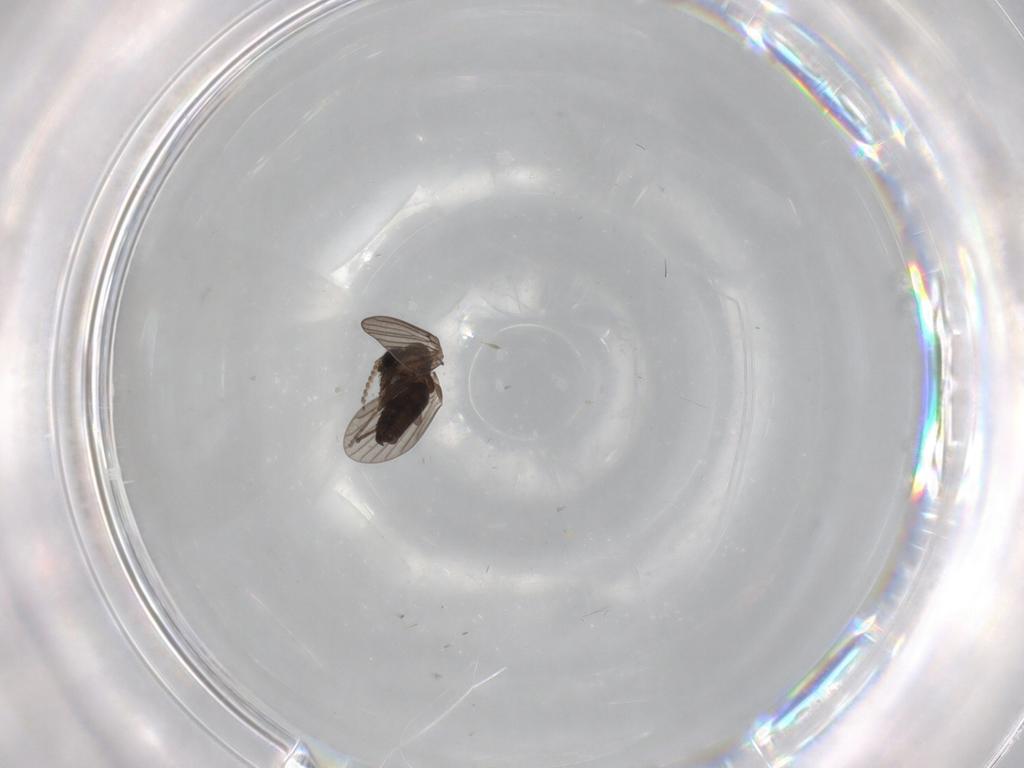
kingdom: Animalia
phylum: Arthropoda
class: Insecta
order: Diptera
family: Psychodidae
